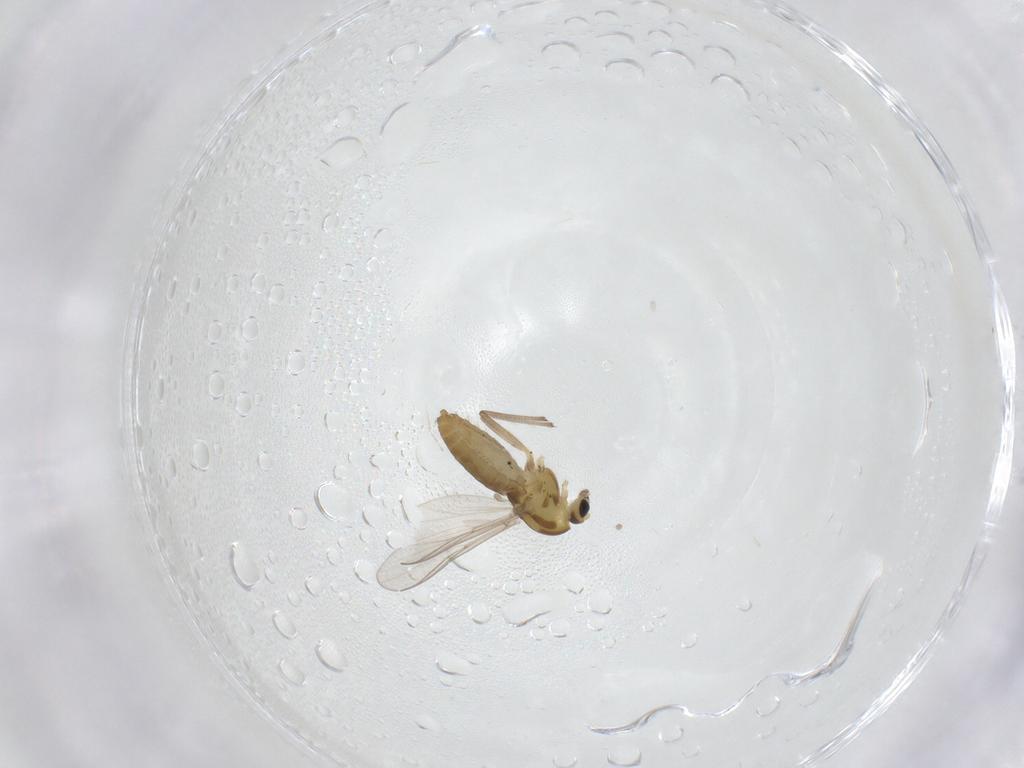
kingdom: Animalia
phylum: Arthropoda
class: Insecta
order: Diptera
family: Chironomidae
